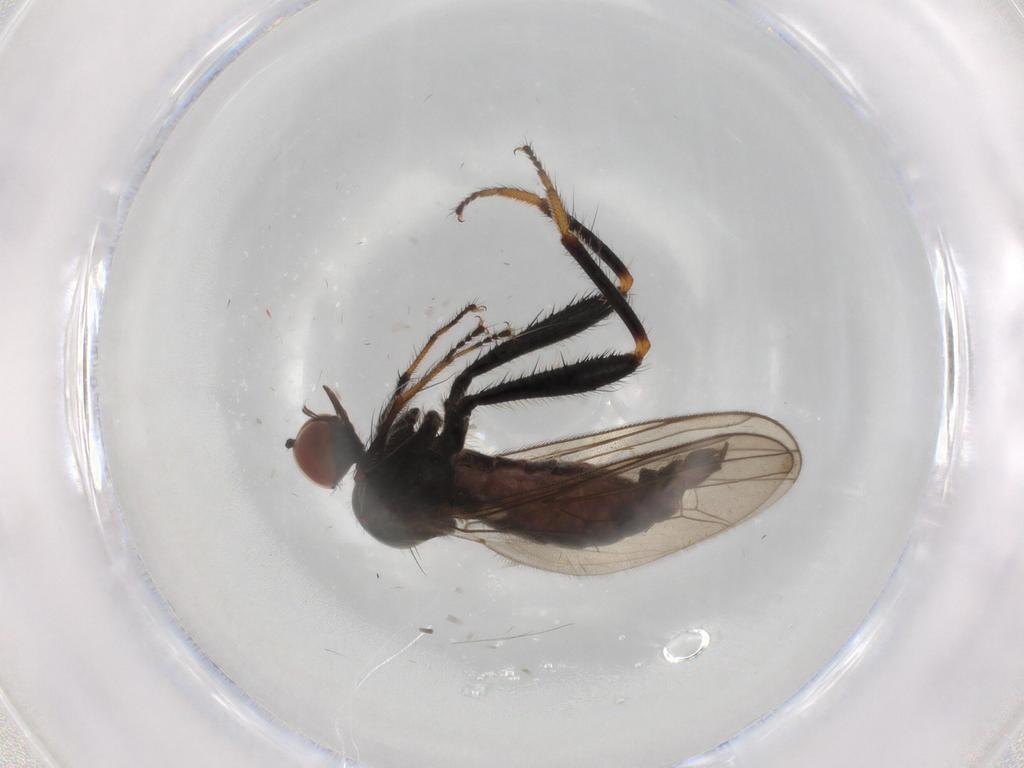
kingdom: Animalia
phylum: Arthropoda
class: Insecta
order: Diptera
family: Hybotidae
